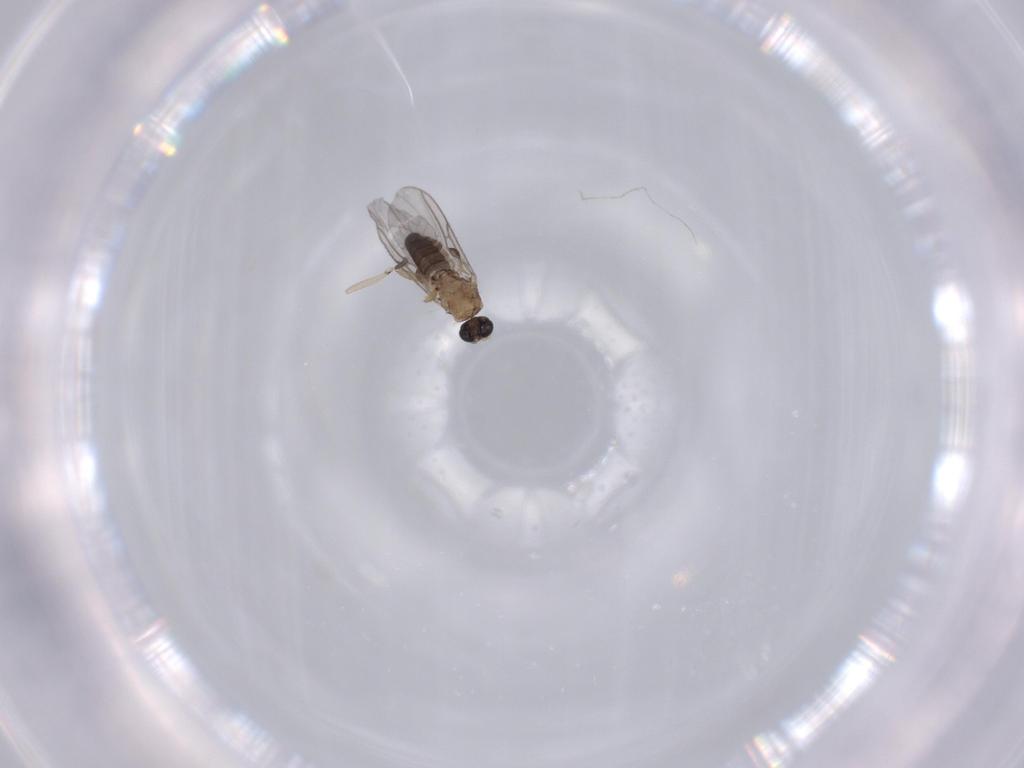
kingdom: Animalia
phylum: Arthropoda
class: Insecta
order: Diptera
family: Sciaridae
